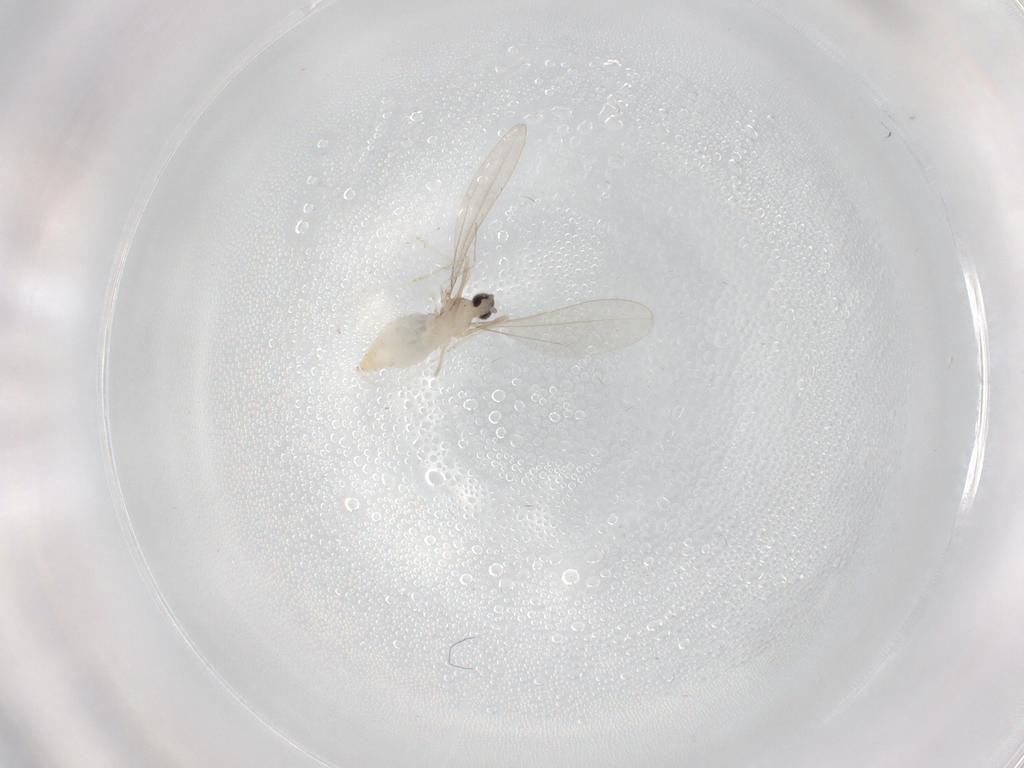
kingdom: Animalia
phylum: Arthropoda
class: Insecta
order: Diptera
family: Cecidomyiidae
